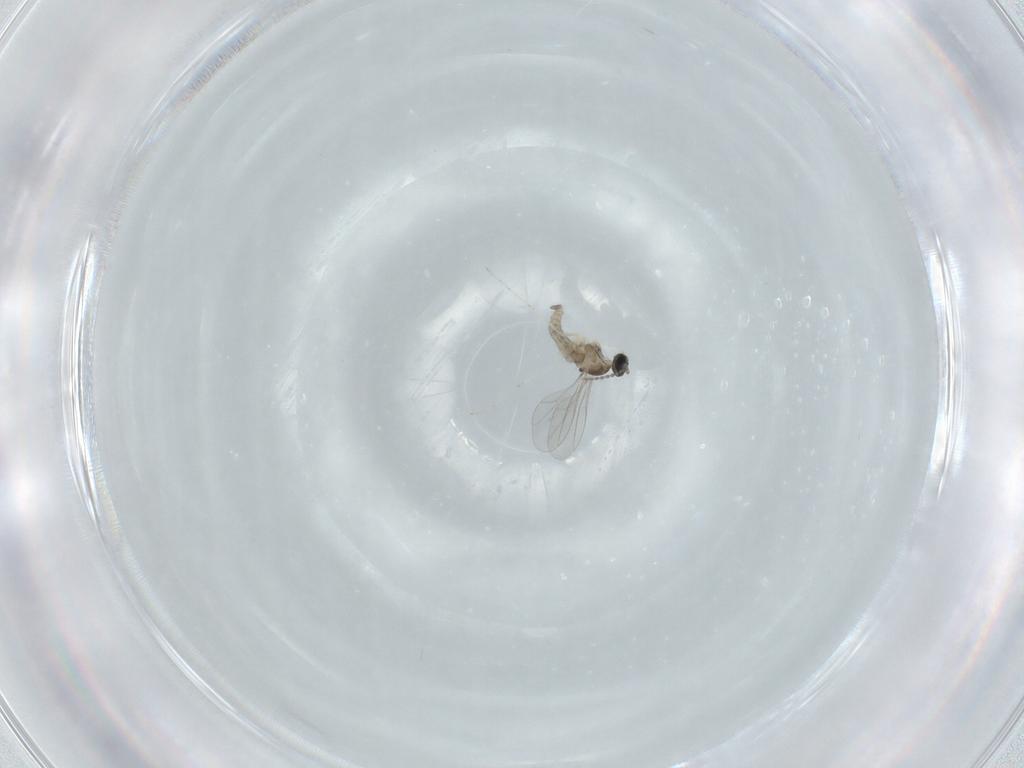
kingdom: Animalia
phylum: Arthropoda
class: Insecta
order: Diptera
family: Cecidomyiidae
